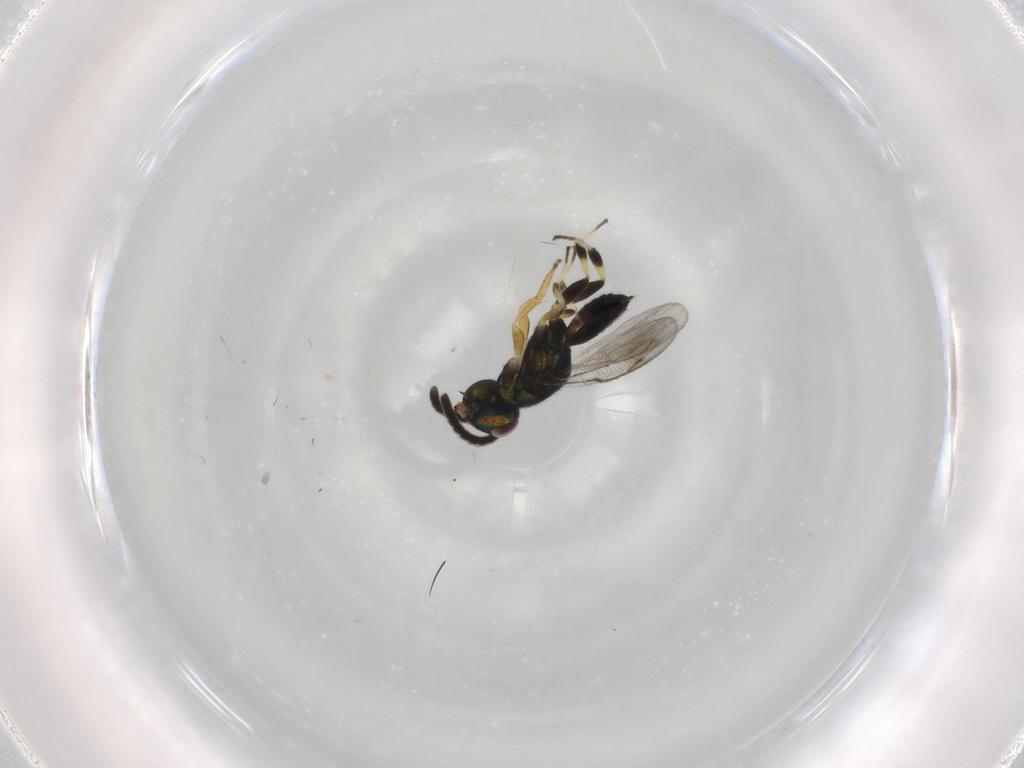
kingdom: Animalia
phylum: Arthropoda
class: Insecta
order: Hymenoptera
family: Eupelmidae
